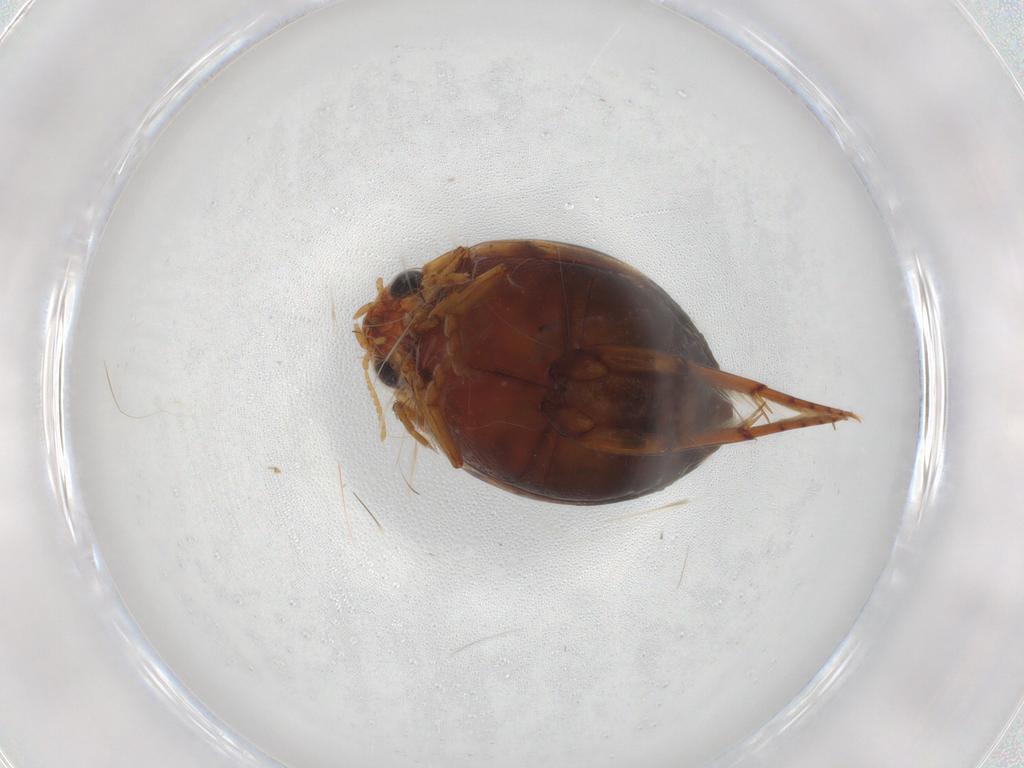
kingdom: Animalia
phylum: Arthropoda
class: Insecta
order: Coleoptera
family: Dytiscidae
